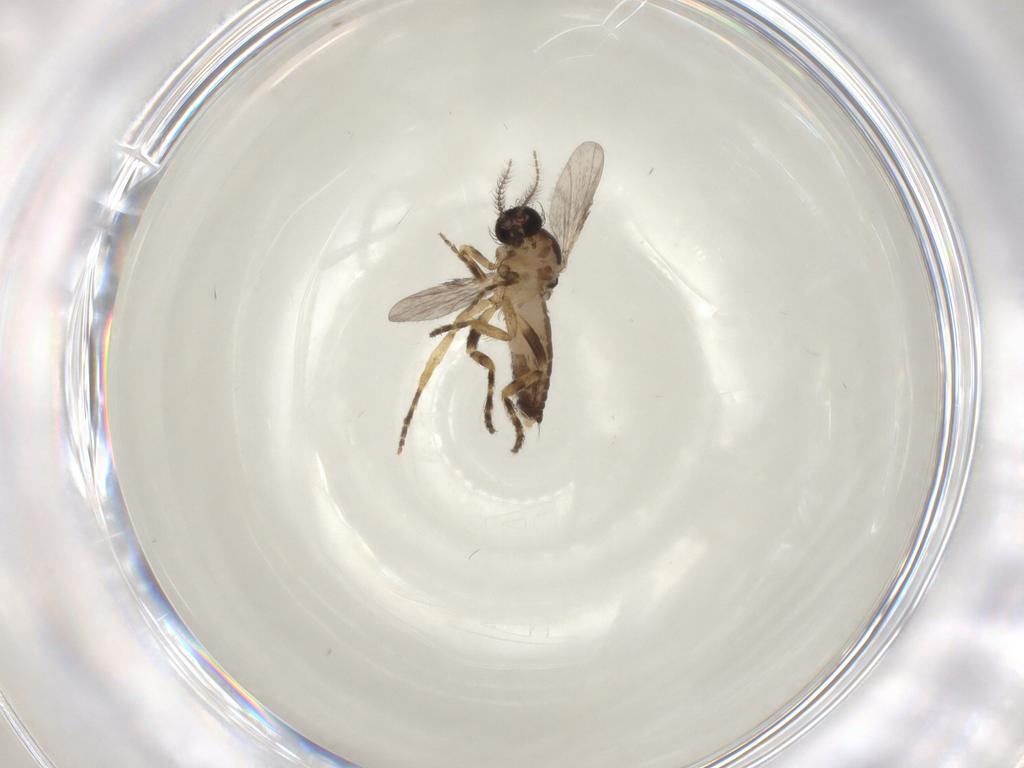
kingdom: Animalia
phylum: Arthropoda
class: Insecta
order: Diptera
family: Ceratopogonidae
